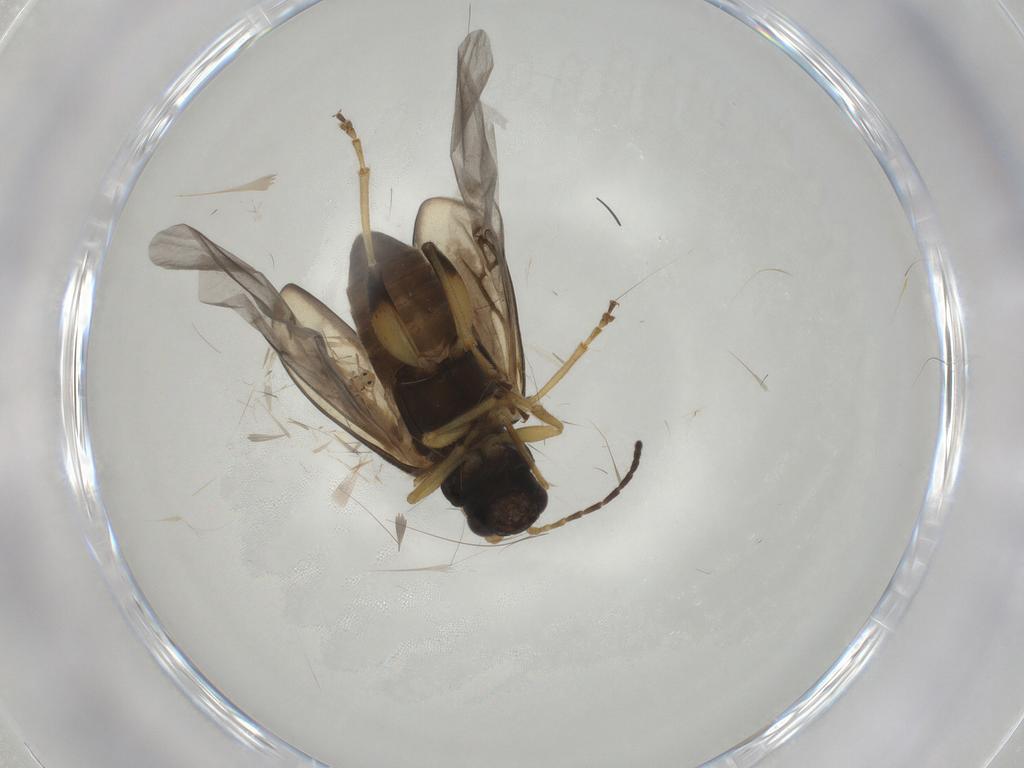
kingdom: Animalia
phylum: Arthropoda
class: Insecta
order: Coleoptera
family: Chrysomelidae
